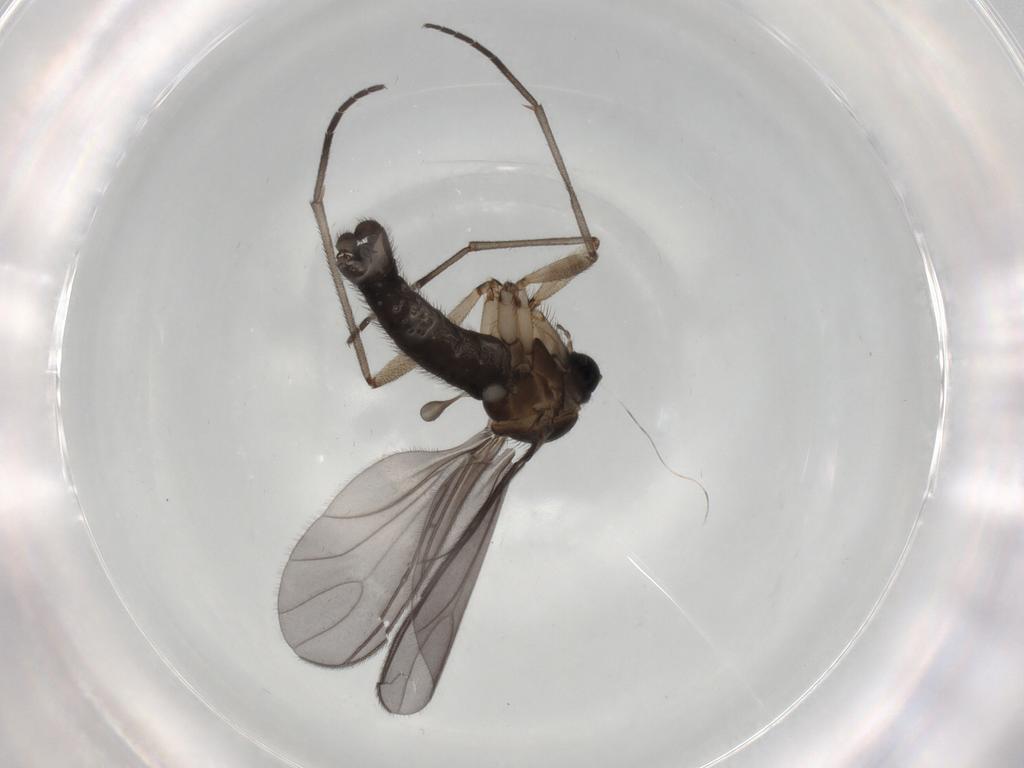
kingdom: Animalia
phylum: Arthropoda
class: Insecta
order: Diptera
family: Sciaridae
